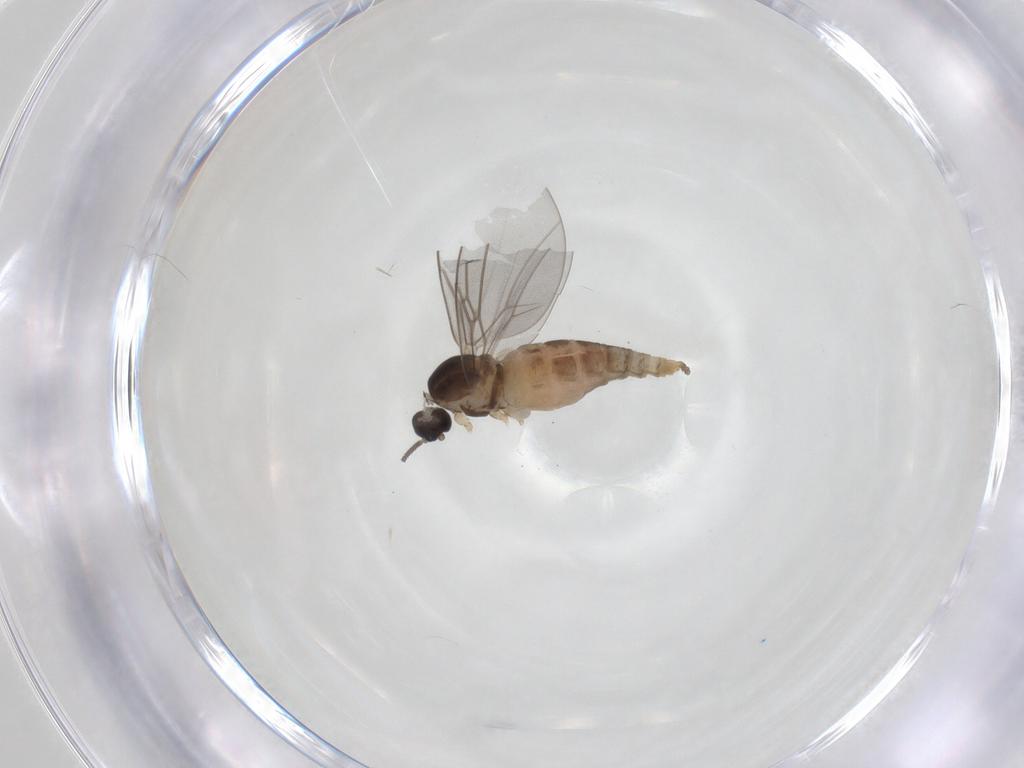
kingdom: Animalia
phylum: Arthropoda
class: Insecta
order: Diptera
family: Cecidomyiidae
